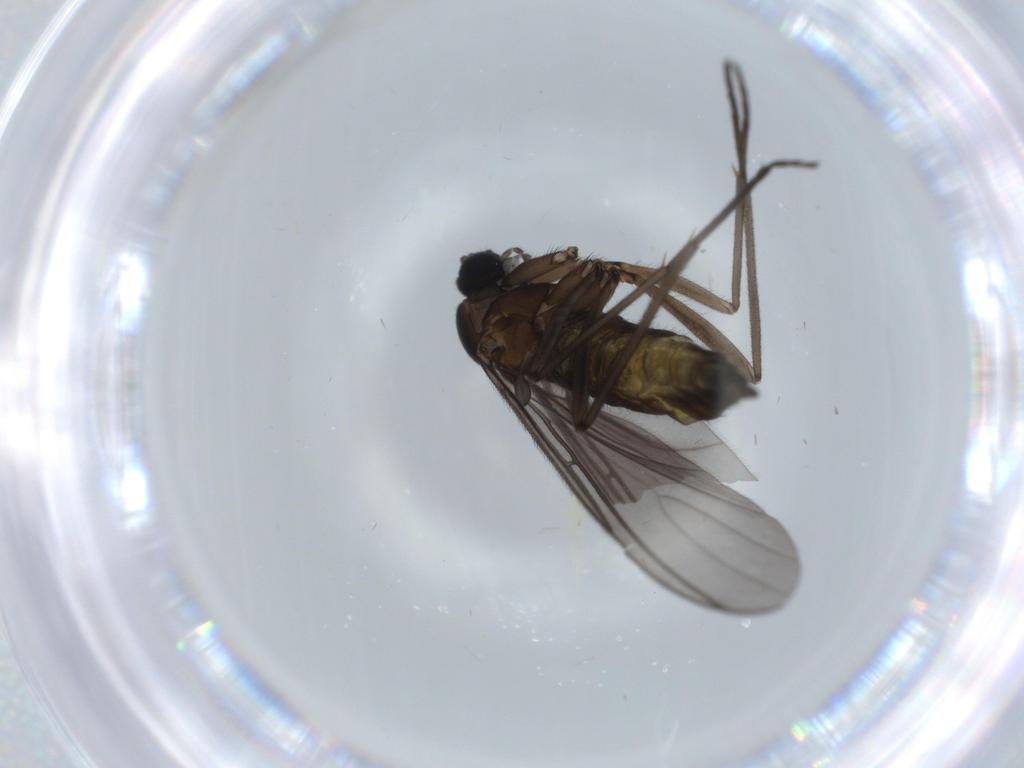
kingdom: Animalia
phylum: Arthropoda
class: Insecta
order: Diptera
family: Sciaridae
